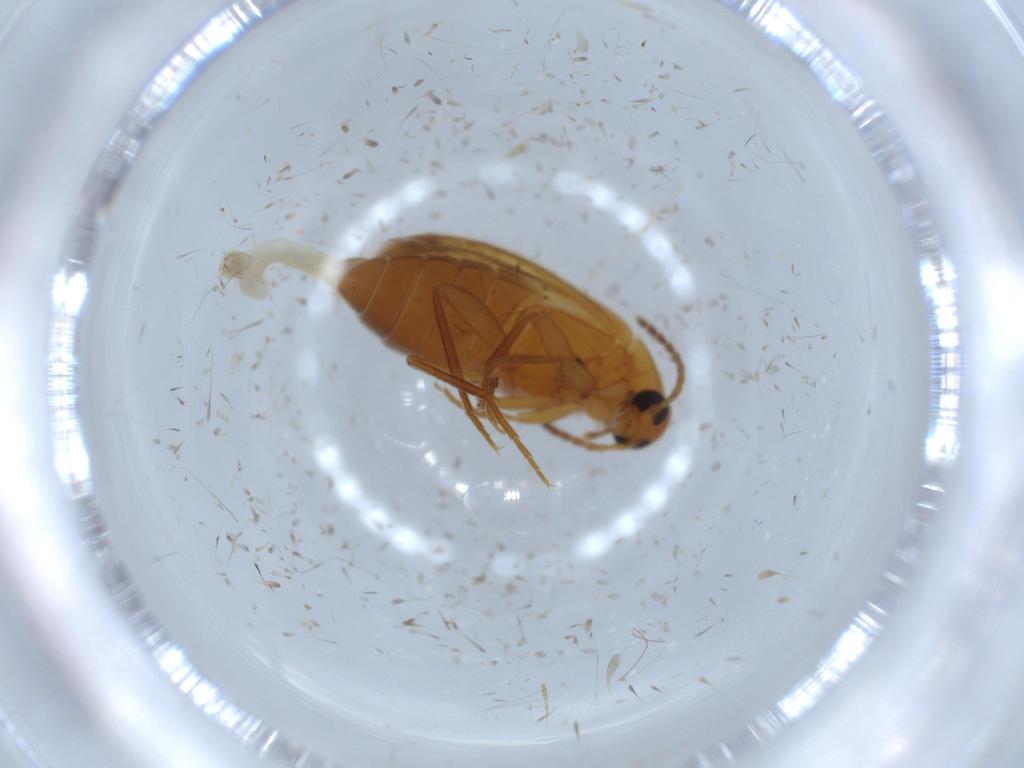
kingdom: Animalia
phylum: Arthropoda
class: Insecta
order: Coleoptera
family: Scraptiidae
